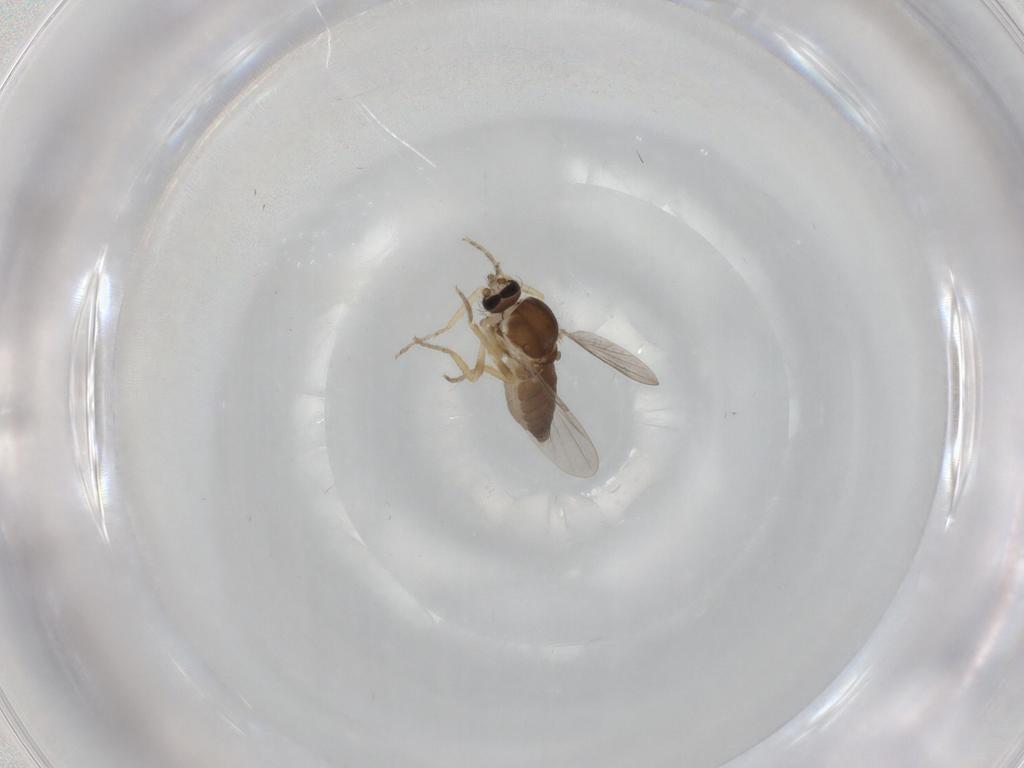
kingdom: Animalia
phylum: Arthropoda
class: Insecta
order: Diptera
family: Ceratopogonidae
